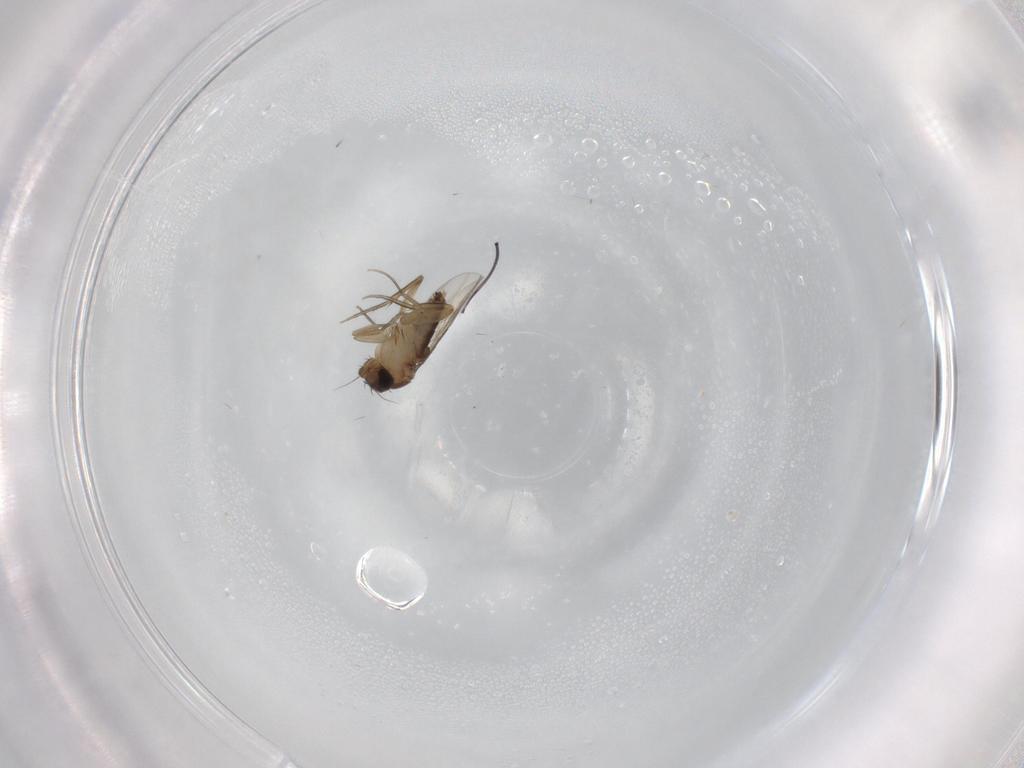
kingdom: Animalia
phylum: Arthropoda
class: Insecta
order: Diptera
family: Phoridae
